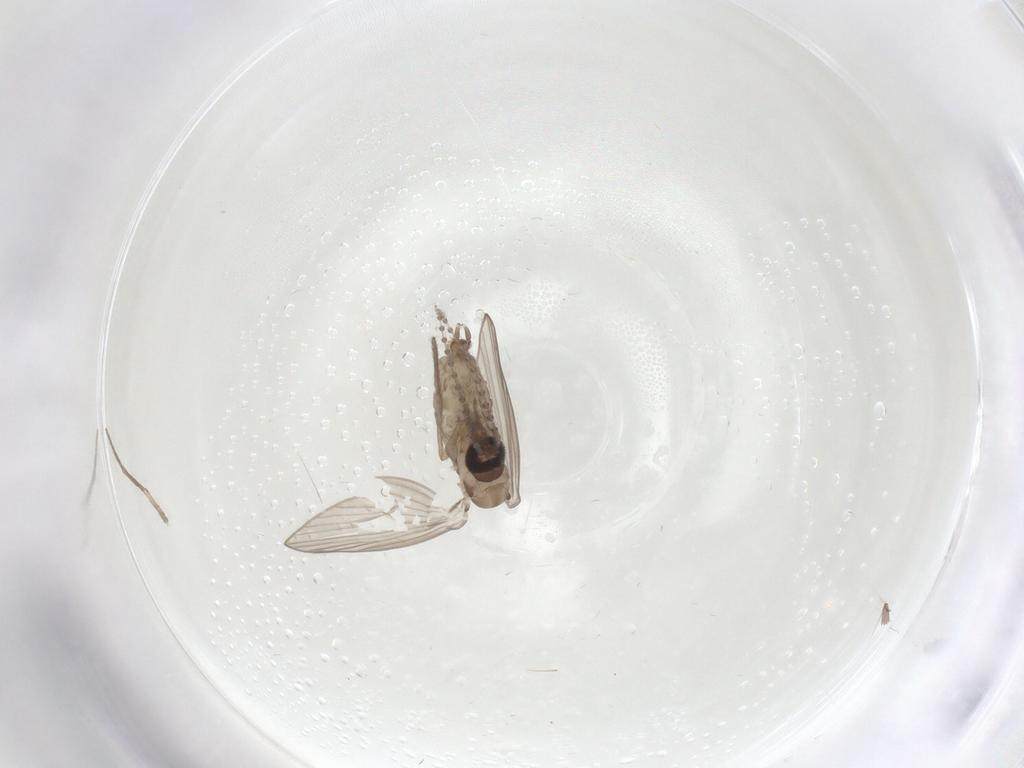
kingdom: Animalia
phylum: Arthropoda
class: Insecta
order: Diptera
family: Psychodidae
